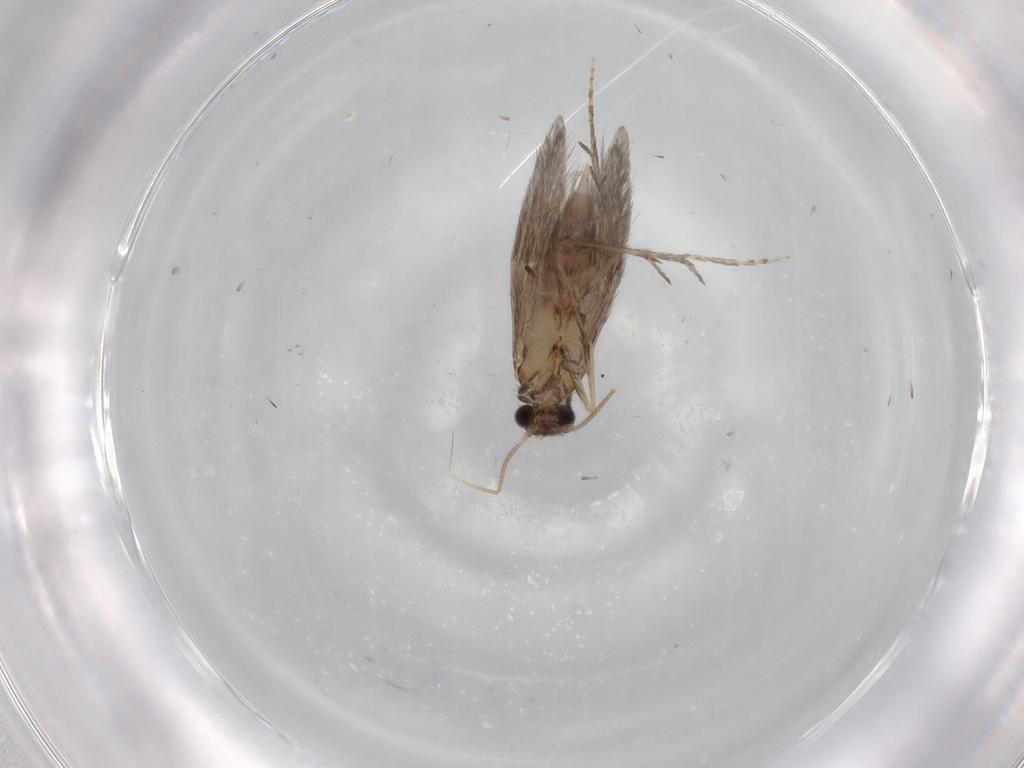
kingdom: Animalia
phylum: Arthropoda
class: Insecta
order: Trichoptera
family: Hydroptilidae
